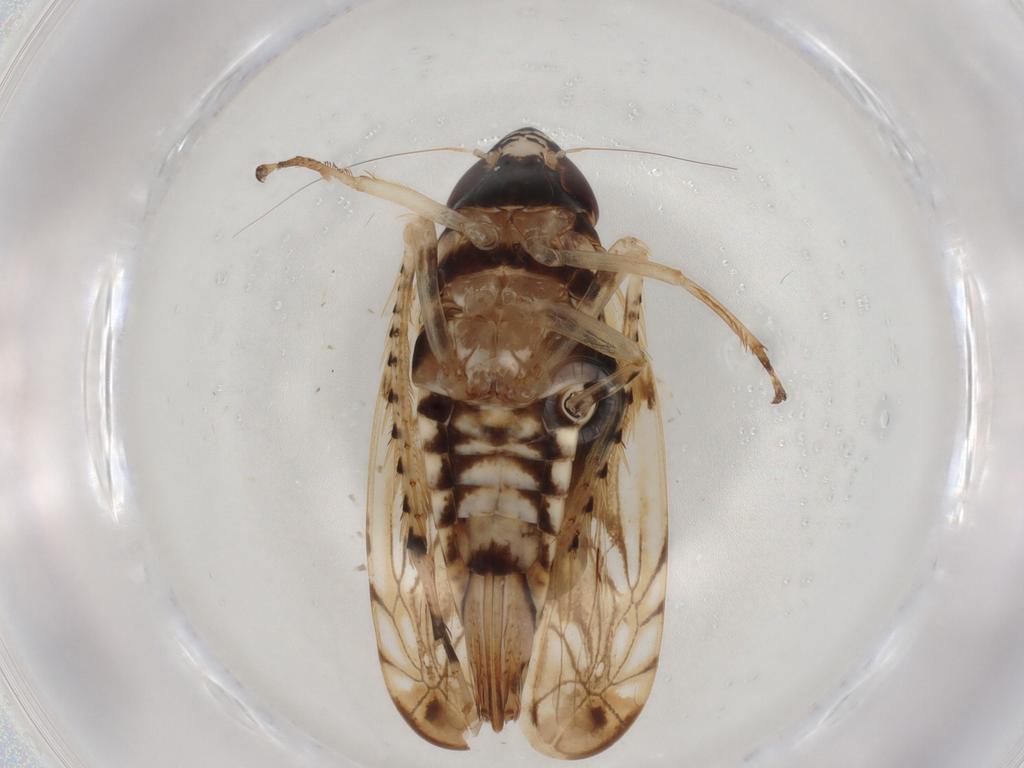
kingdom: Animalia
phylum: Arthropoda
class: Insecta
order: Hemiptera
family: Cicadellidae
